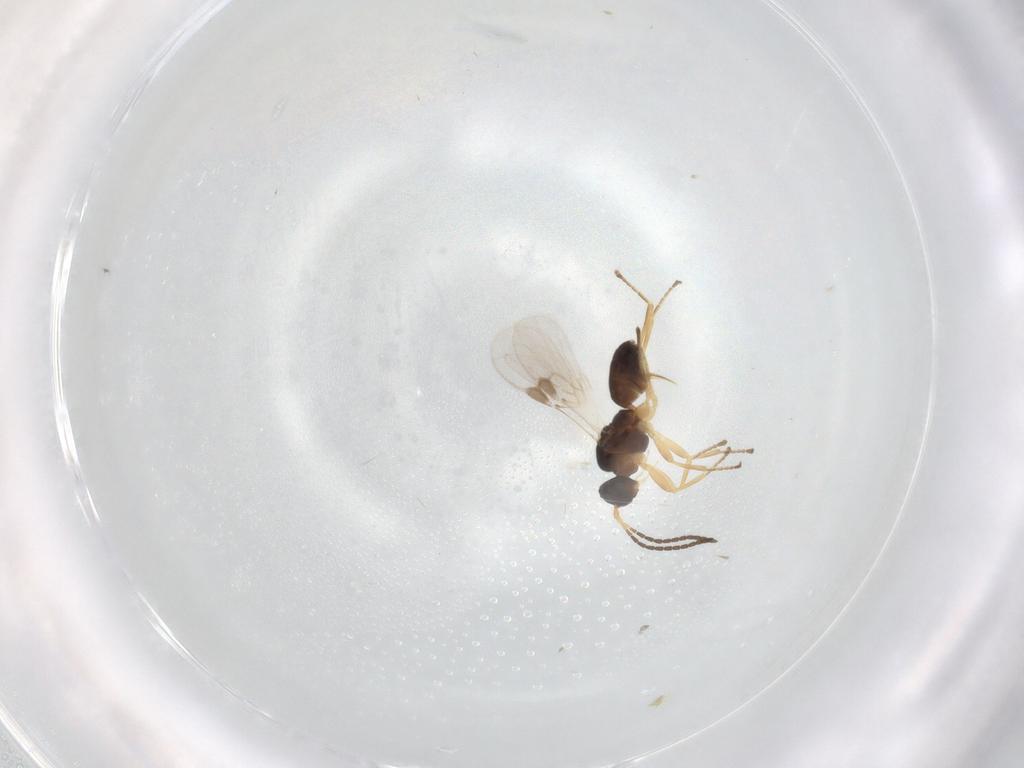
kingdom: Animalia
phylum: Arthropoda
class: Insecta
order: Hymenoptera
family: Braconidae
